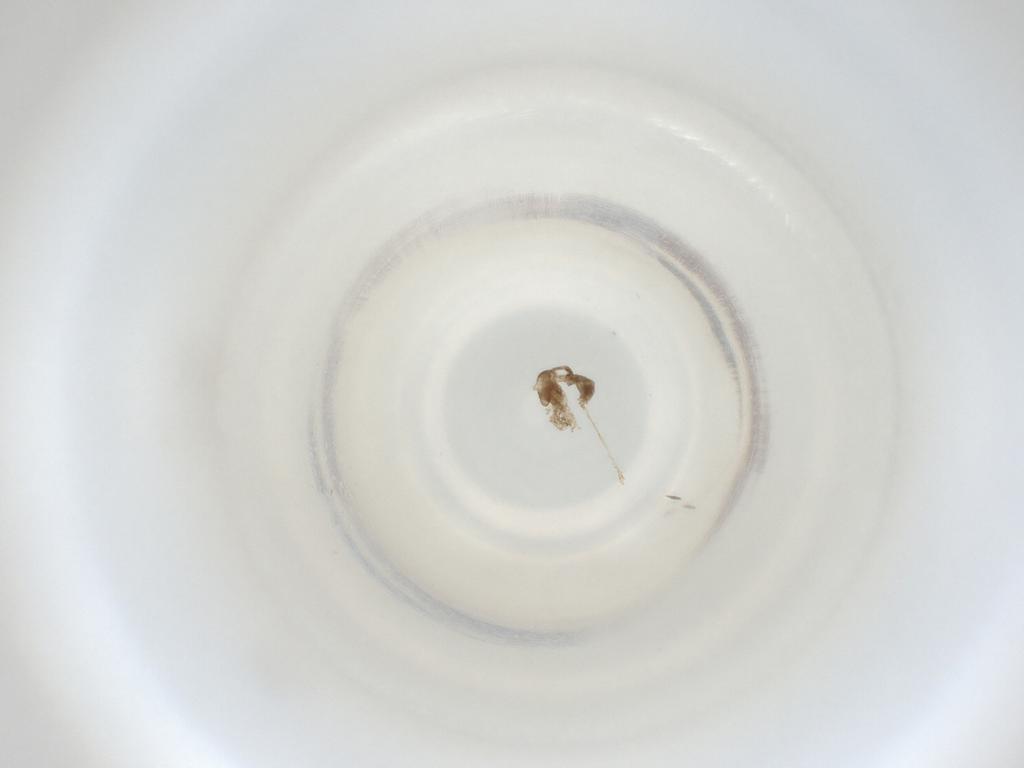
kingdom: Animalia
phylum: Arthropoda
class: Insecta
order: Diptera
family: Cecidomyiidae
